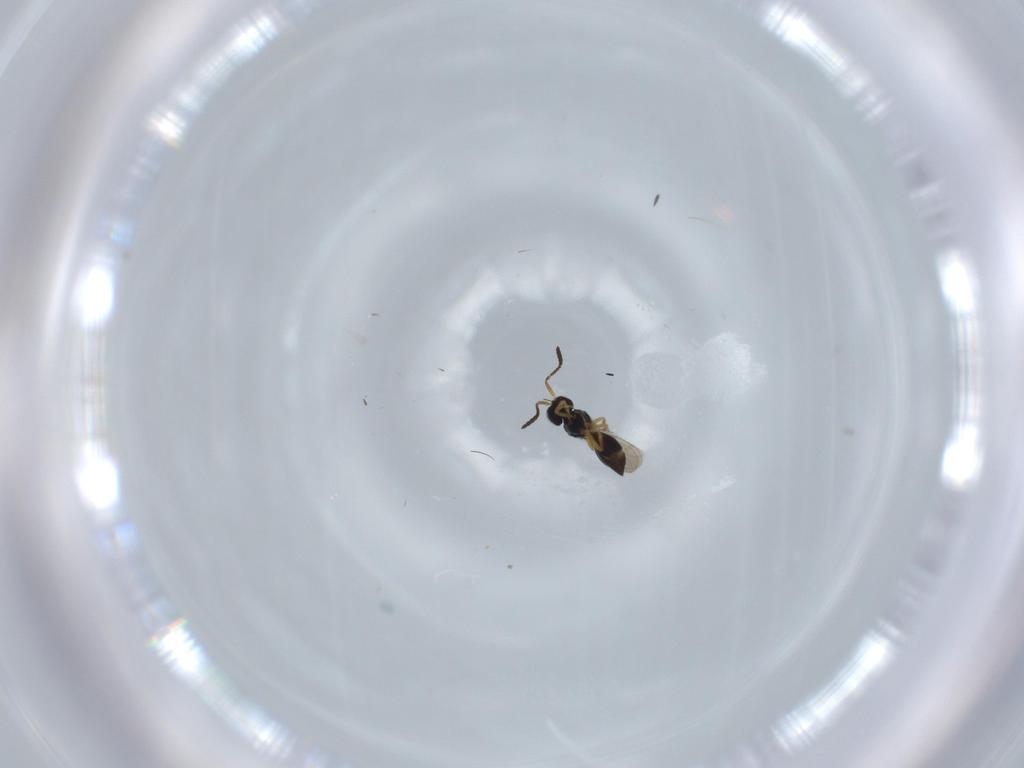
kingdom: Animalia
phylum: Arthropoda
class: Insecta
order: Hymenoptera
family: Scelionidae
